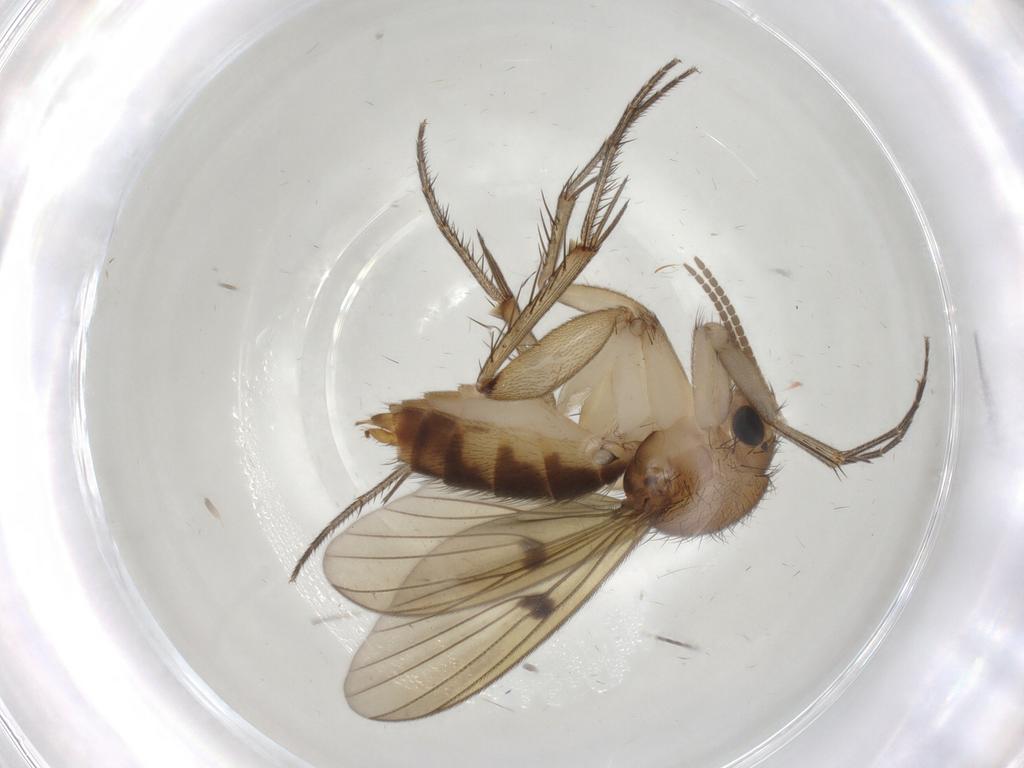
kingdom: Animalia
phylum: Arthropoda
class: Insecta
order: Diptera
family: Mycetophilidae
